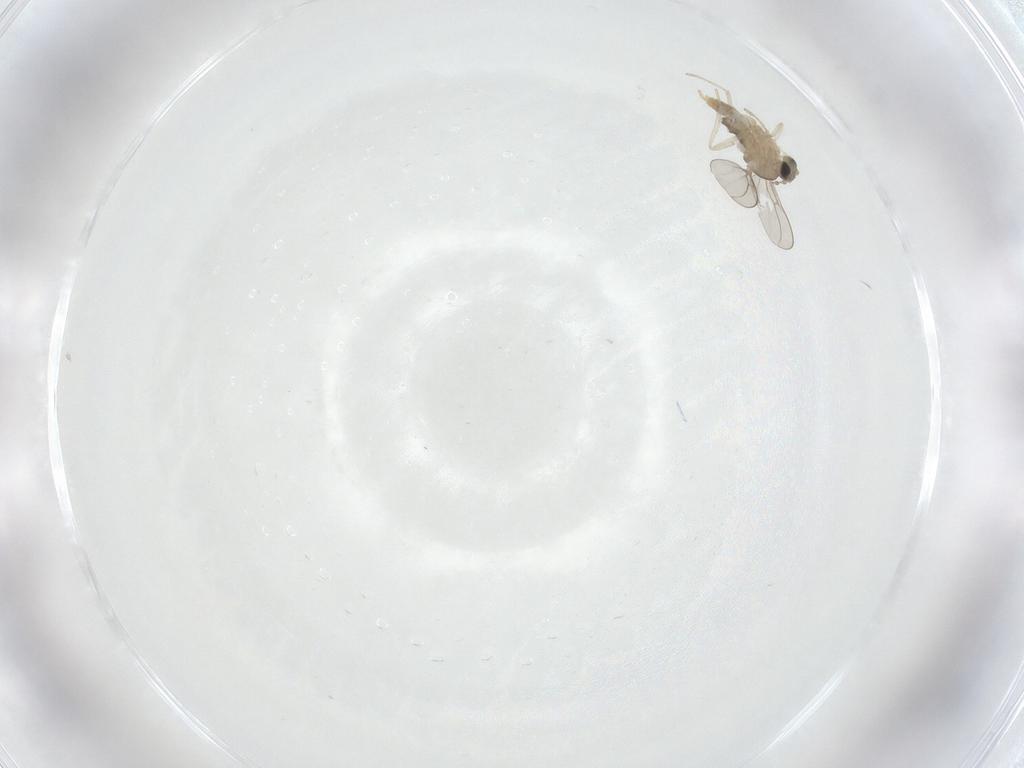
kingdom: Animalia
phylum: Arthropoda
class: Insecta
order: Diptera
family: Cecidomyiidae
